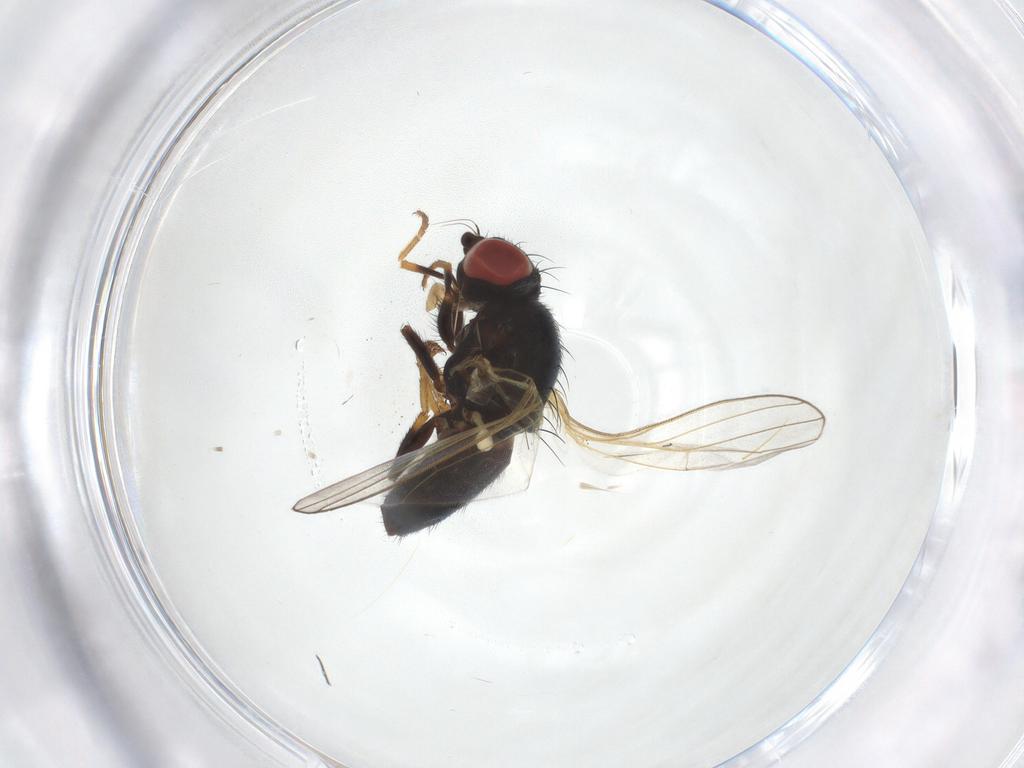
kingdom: Animalia
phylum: Arthropoda
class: Insecta
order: Diptera
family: Chamaemyiidae
